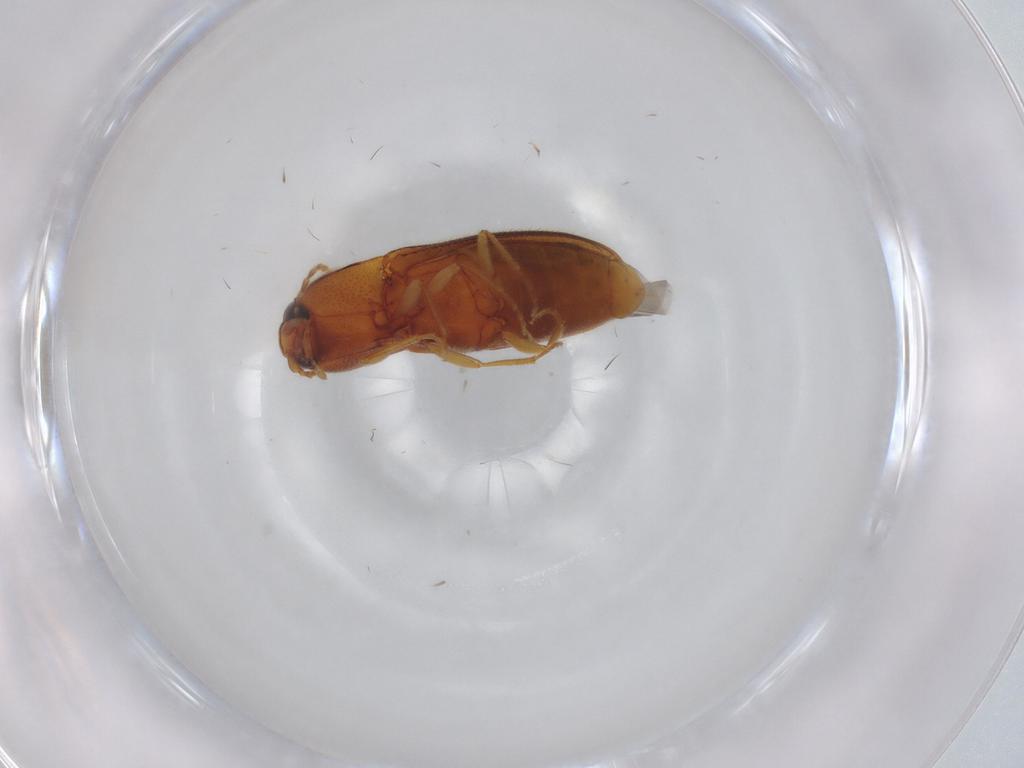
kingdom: Animalia
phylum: Arthropoda
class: Insecta
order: Coleoptera
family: Elateridae
